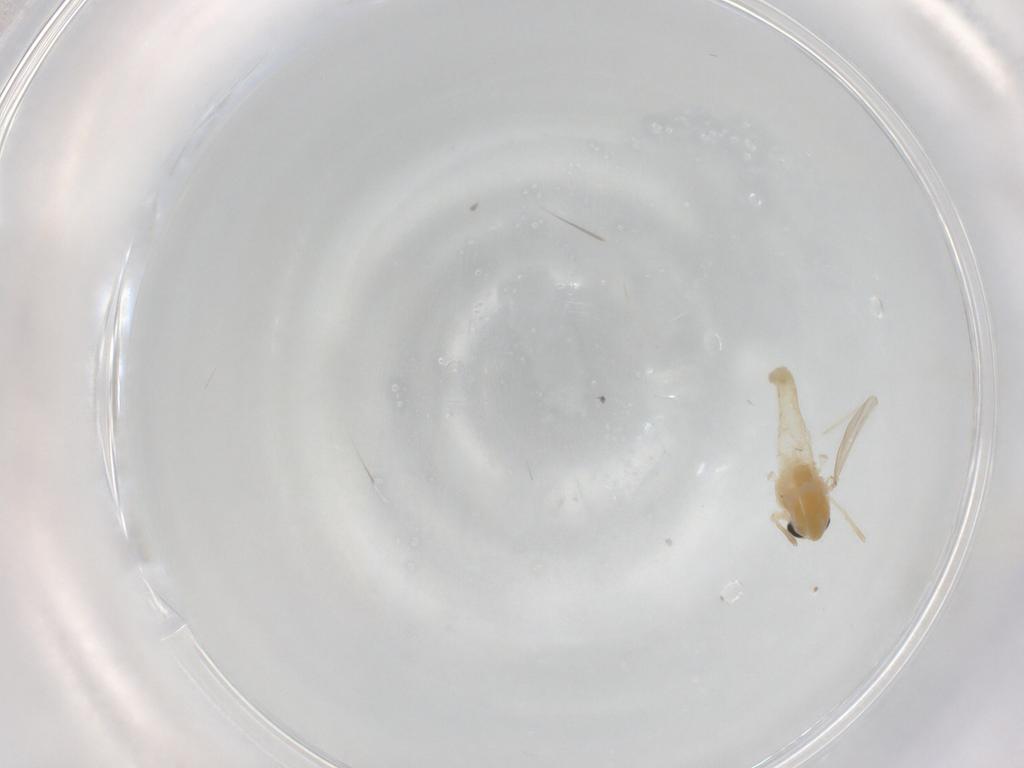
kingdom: Animalia
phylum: Arthropoda
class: Insecta
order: Diptera
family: Chironomidae
